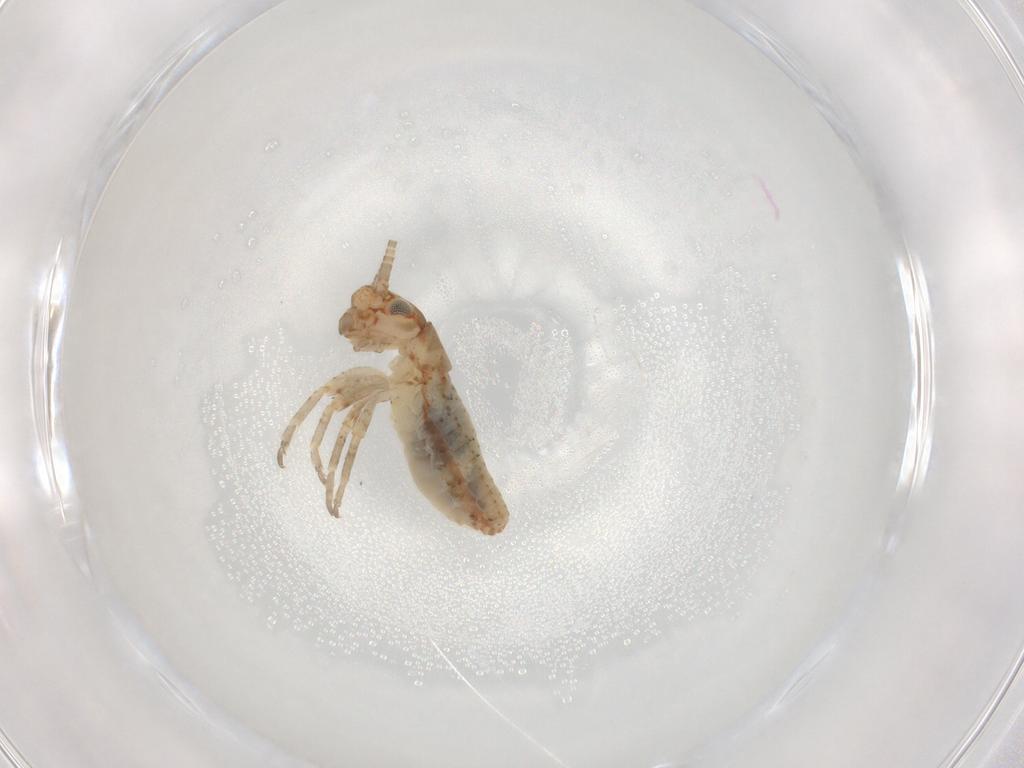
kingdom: Animalia
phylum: Arthropoda
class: Insecta
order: Orthoptera
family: Mogoplistidae
